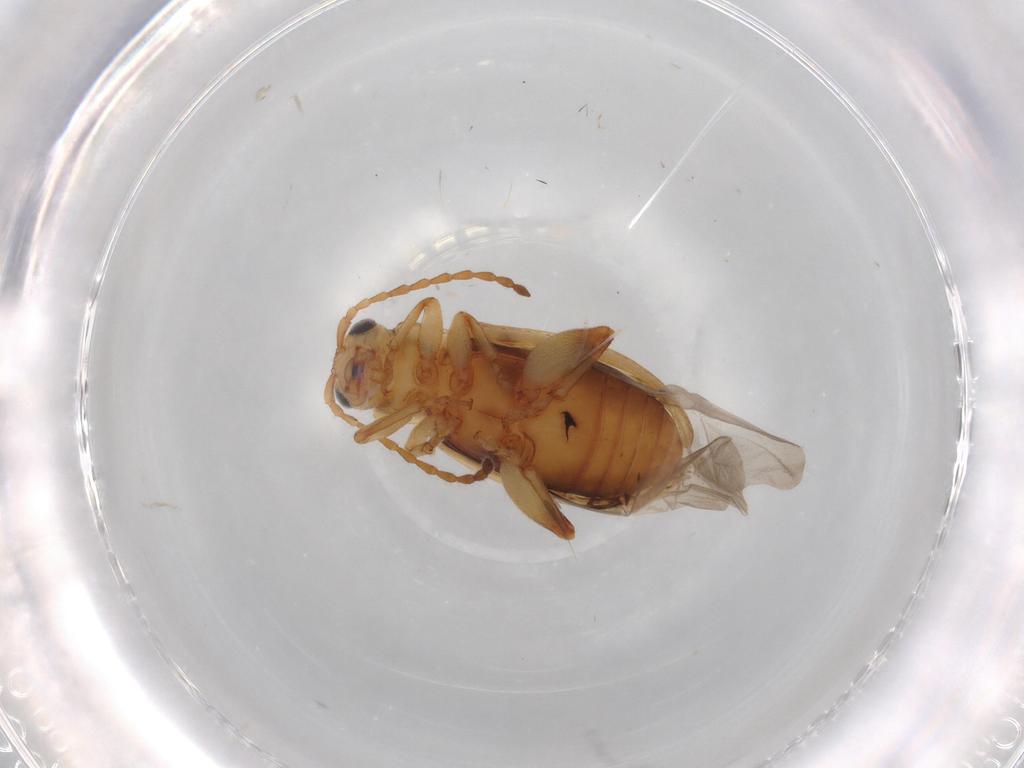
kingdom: Animalia
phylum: Arthropoda
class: Insecta
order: Coleoptera
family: Chrysomelidae
